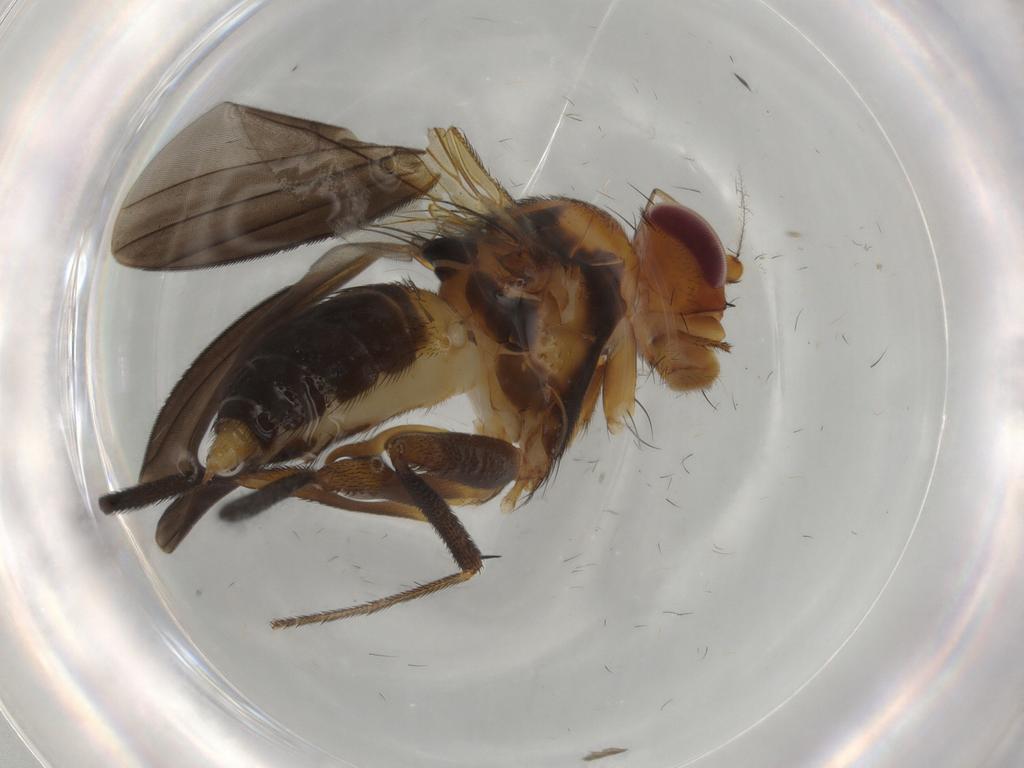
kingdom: Animalia
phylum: Arthropoda
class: Insecta
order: Diptera
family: Clusiidae
